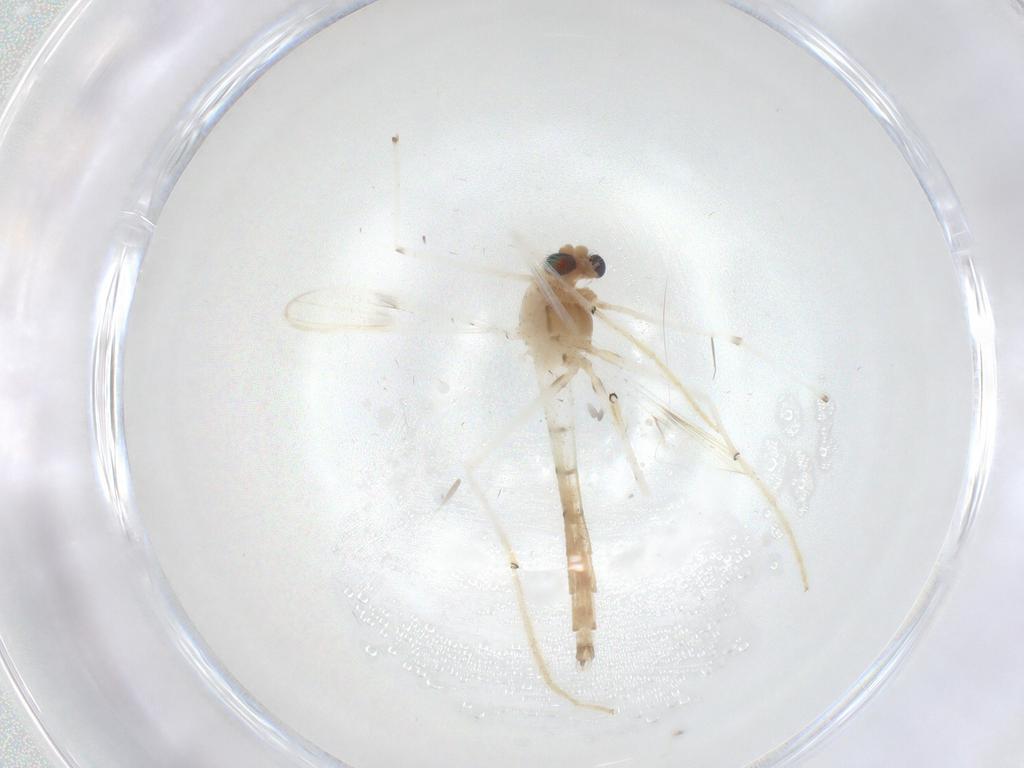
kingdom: Animalia
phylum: Arthropoda
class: Insecta
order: Diptera
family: Chironomidae
